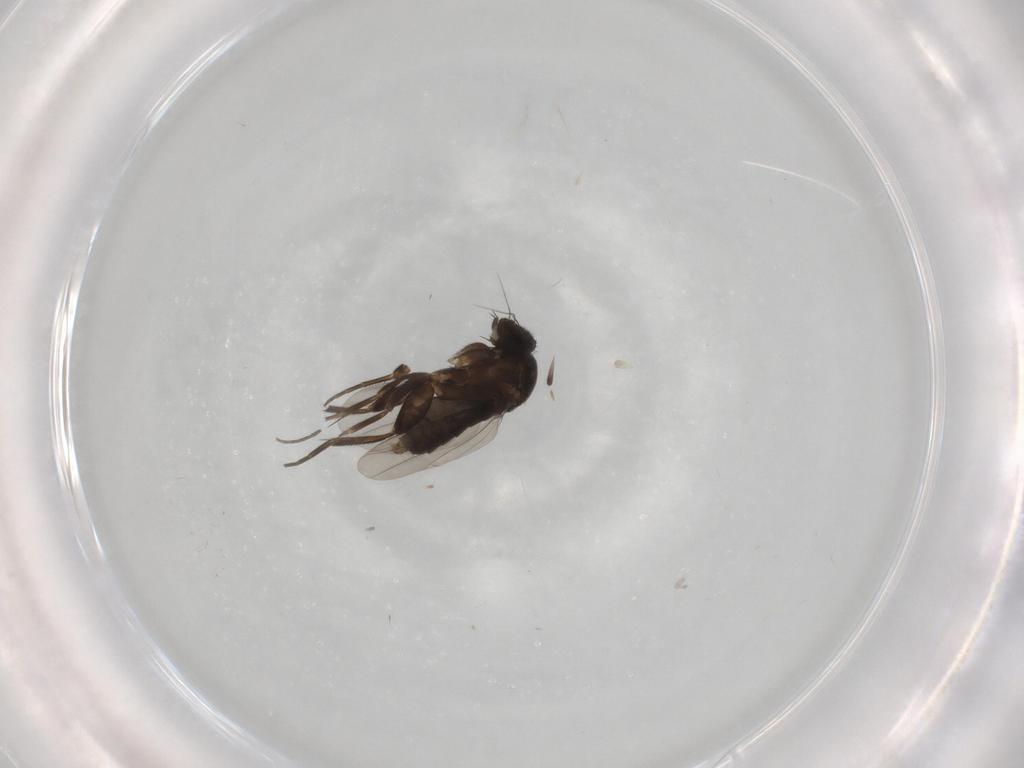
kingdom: Animalia
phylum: Arthropoda
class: Insecta
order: Diptera
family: Phoridae
